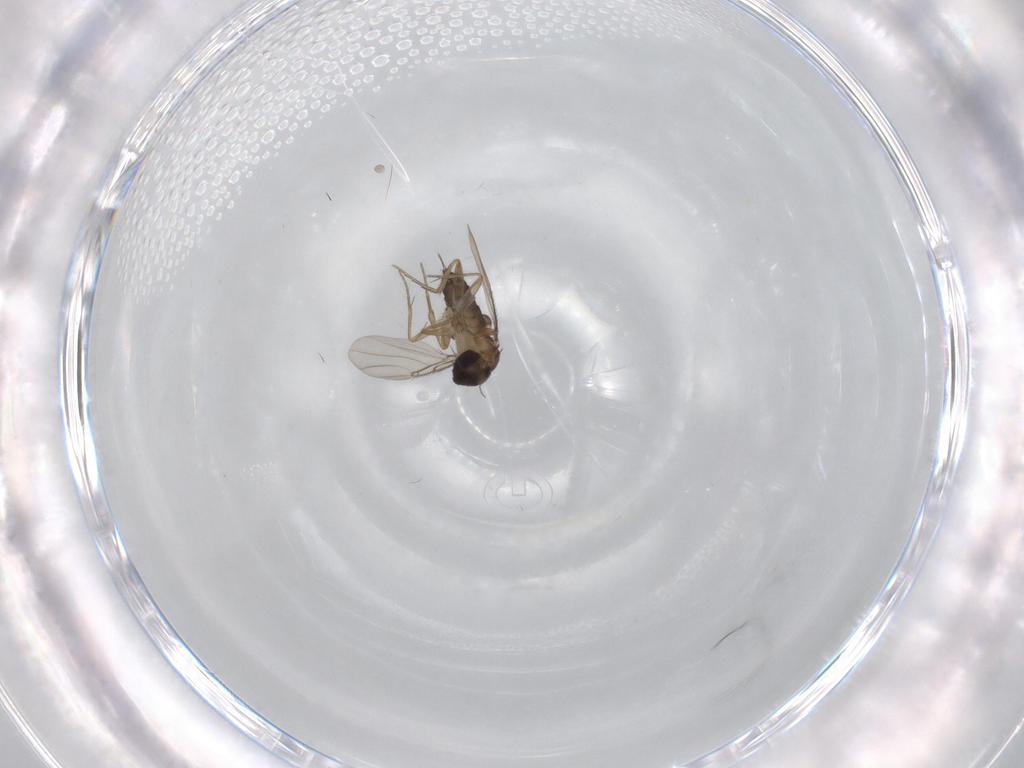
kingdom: Animalia
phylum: Arthropoda
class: Insecta
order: Diptera
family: Phoridae
